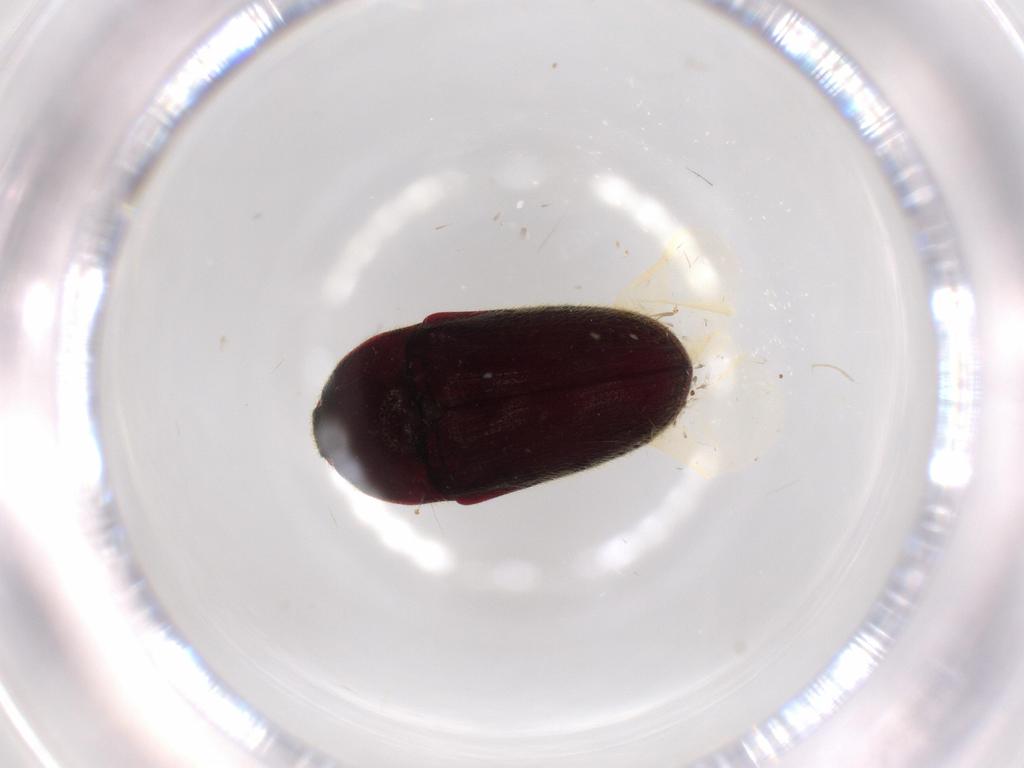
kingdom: Animalia
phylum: Arthropoda
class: Insecta
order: Coleoptera
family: Throscidae
